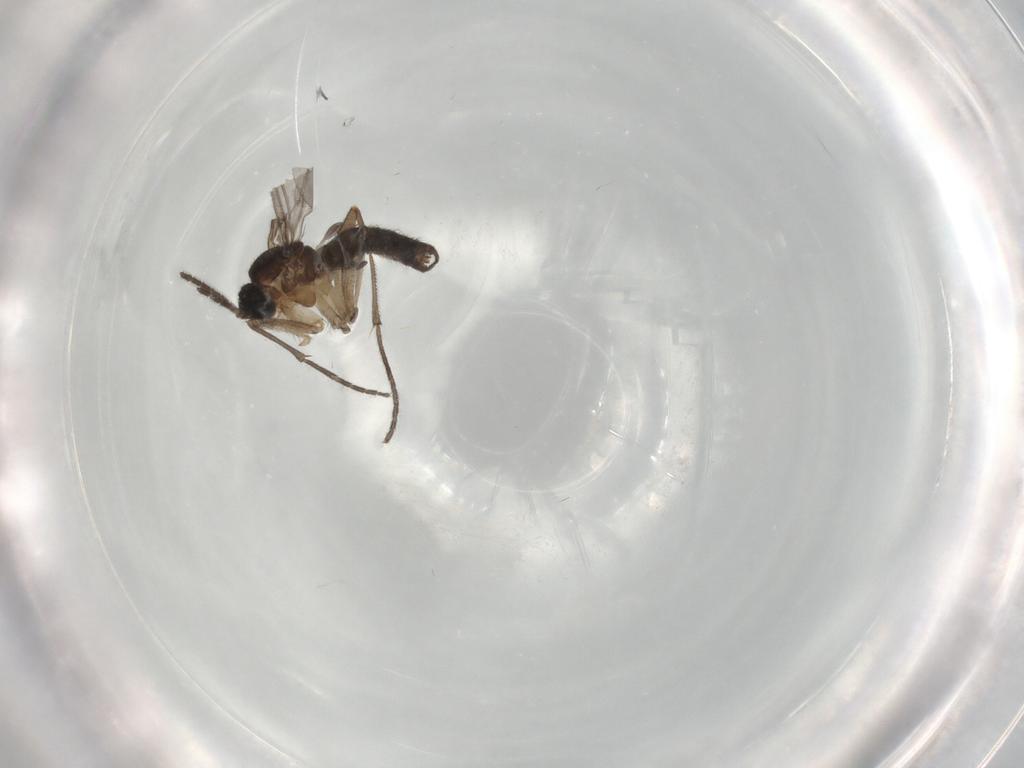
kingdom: Animalia
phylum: Arthropoda
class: Insecta
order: Diptera
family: Sciaridae
